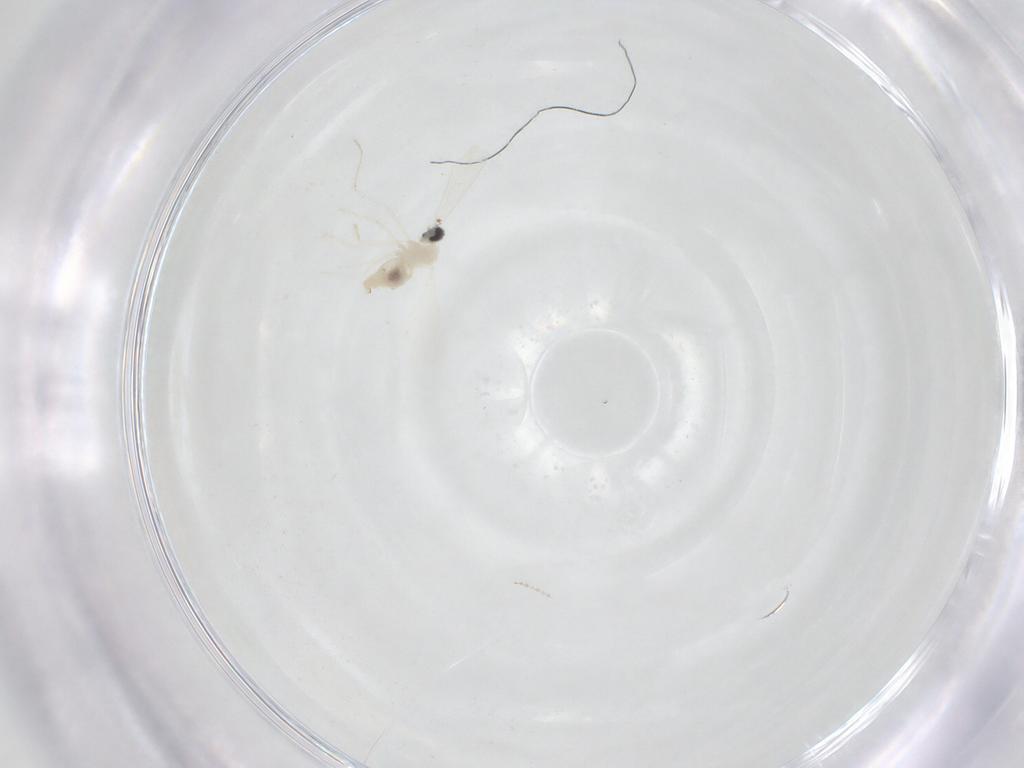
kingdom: Animalia
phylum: Arthropoda
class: Insecta
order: Diptera
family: Cecidomyiidae
